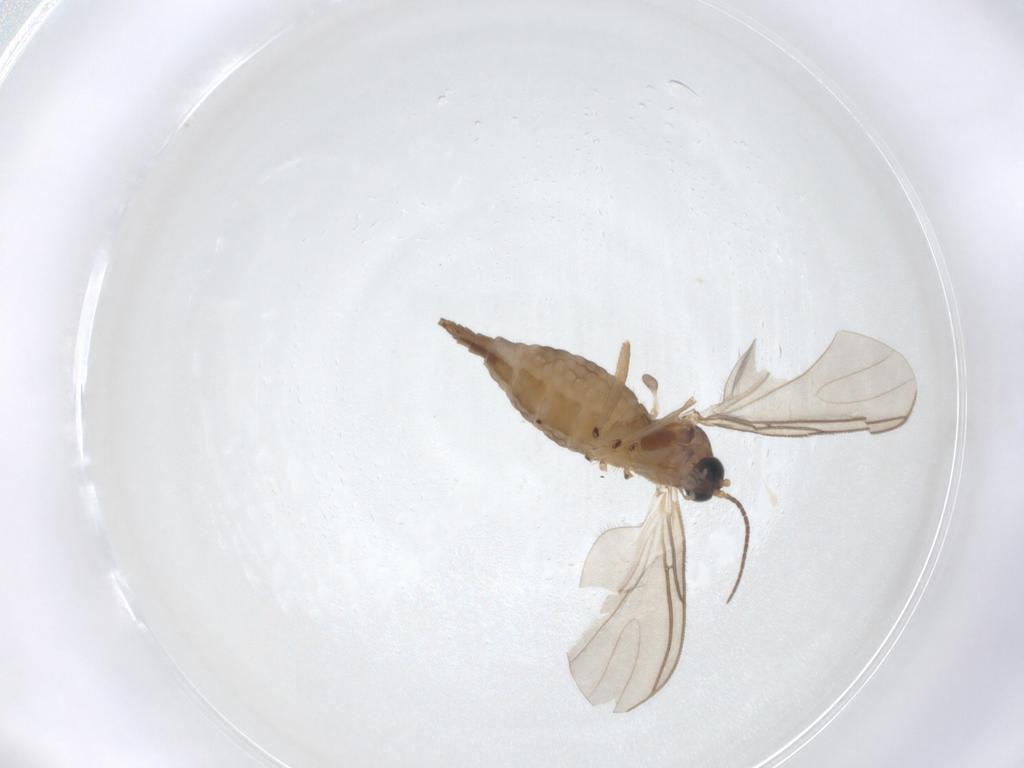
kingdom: Animalia
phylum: Arthropoda
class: Insecta
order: Diptera
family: Sciaridae
